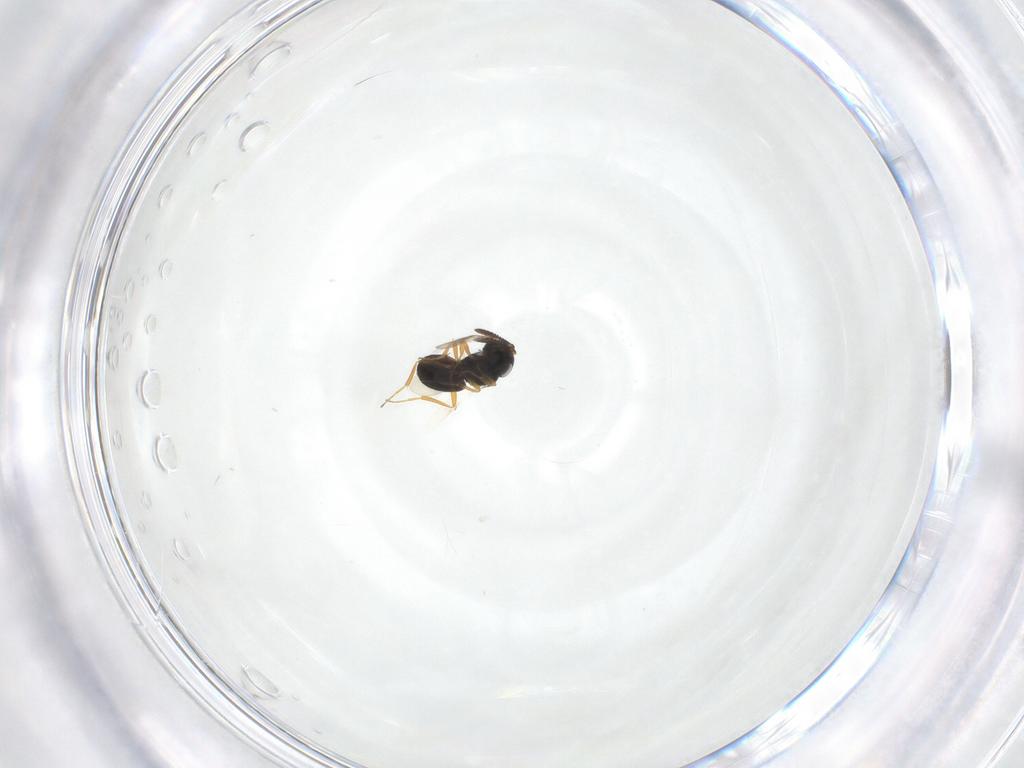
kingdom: Animalia
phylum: Arthropoda
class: Insecta
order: Hymenoptera
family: Scelionidae
